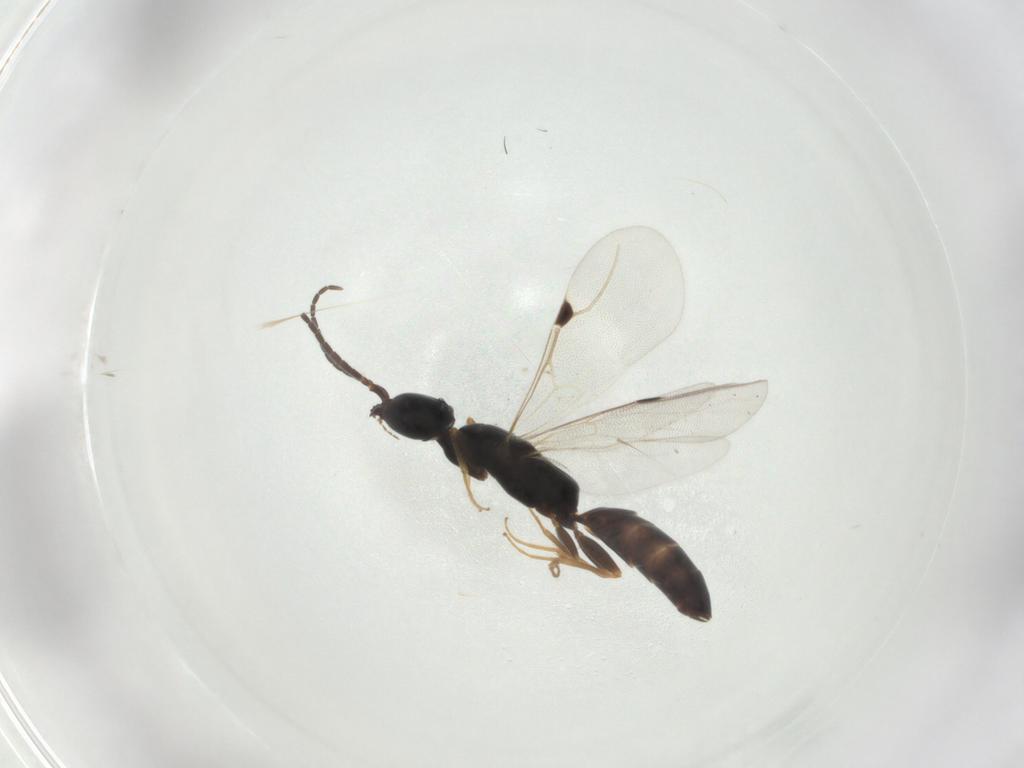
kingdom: Animalia
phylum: Arthropoda
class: Insecta
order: Hymenoptera
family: Bethylidae
